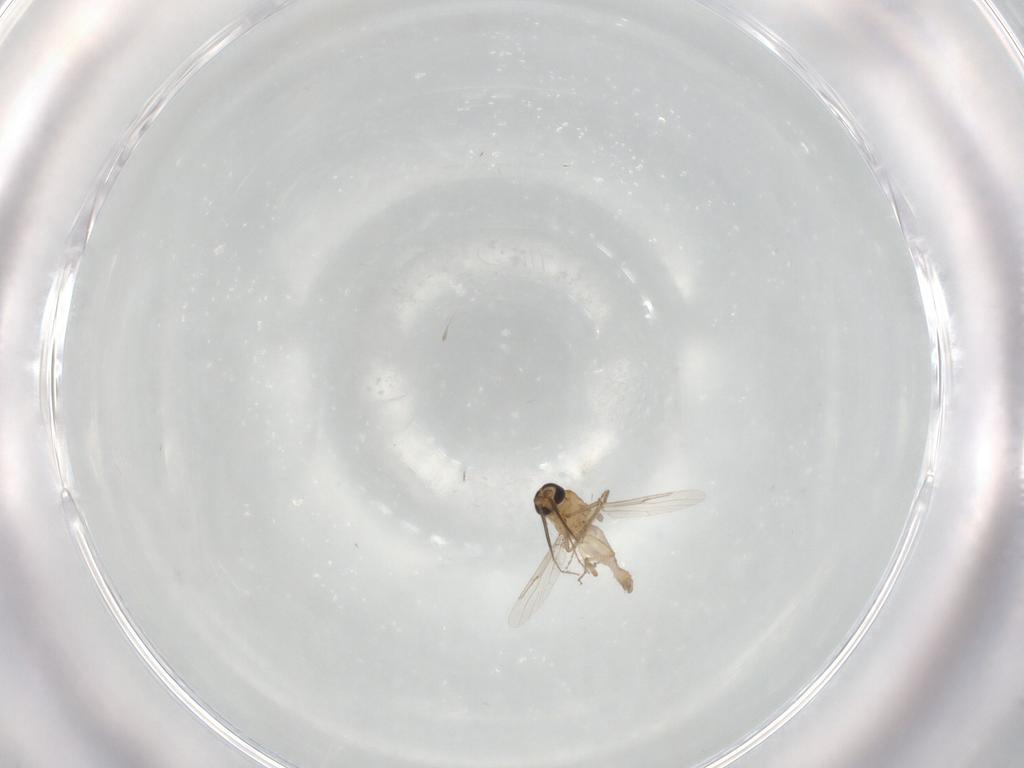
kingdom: Animalia
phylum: Arthropoda
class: Insecta
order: Diptera
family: Ceratopogonidae
